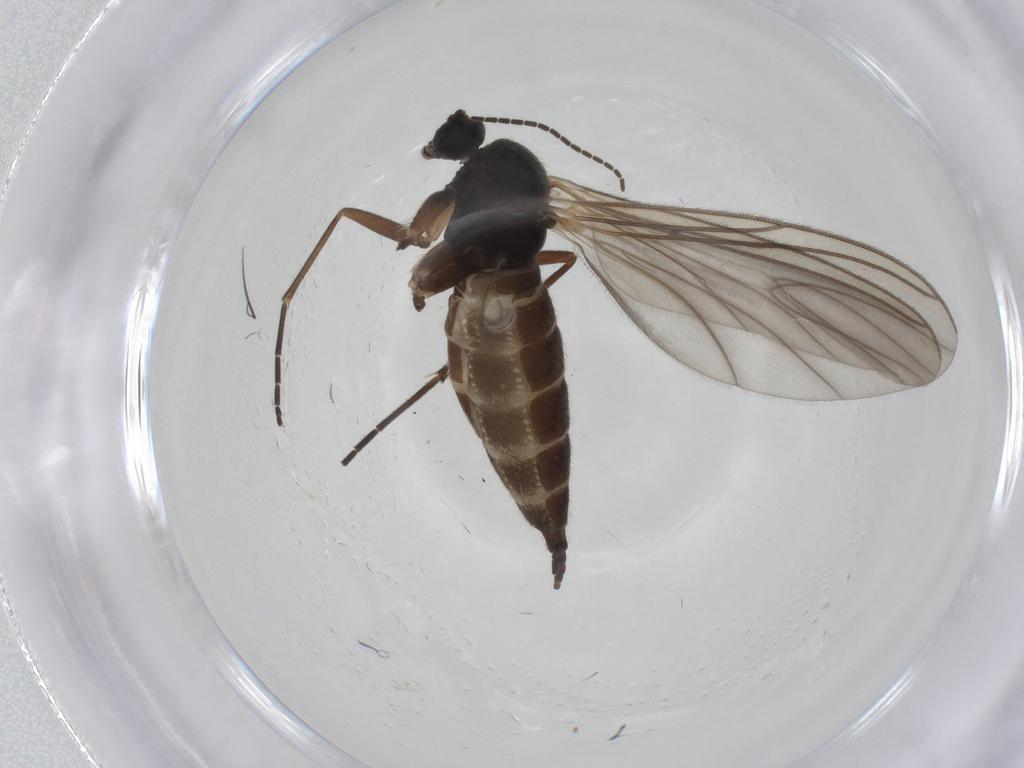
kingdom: Animalia
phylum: Arthropoda
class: Insecta
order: Diptera
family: Sciaridae
